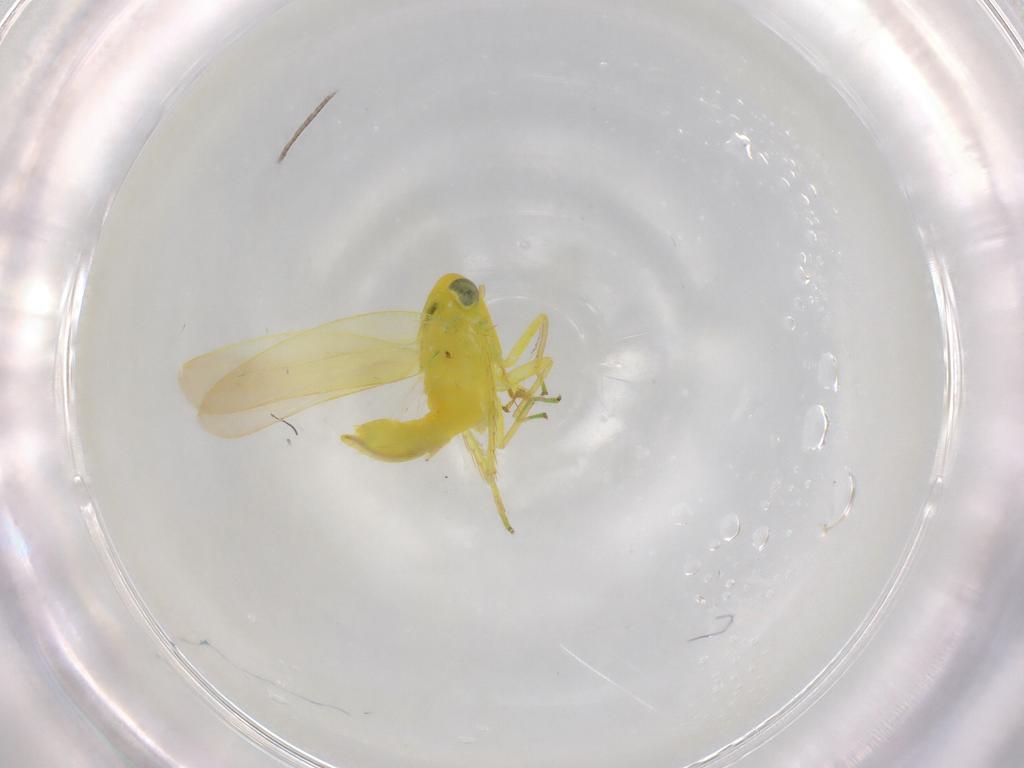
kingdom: Animalia
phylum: Arthropoda
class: Insecta
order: Hemiptera
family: Cicadellidae
